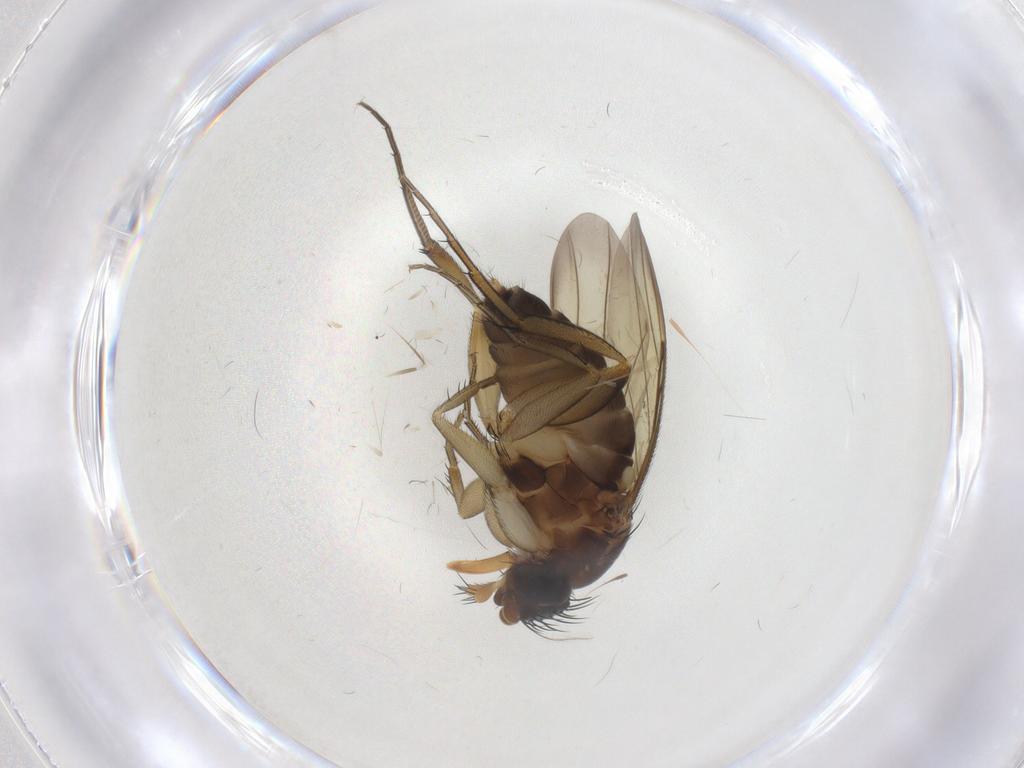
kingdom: Animalia
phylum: Arthropoda
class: Insecta
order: Diptera
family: Phoridae
